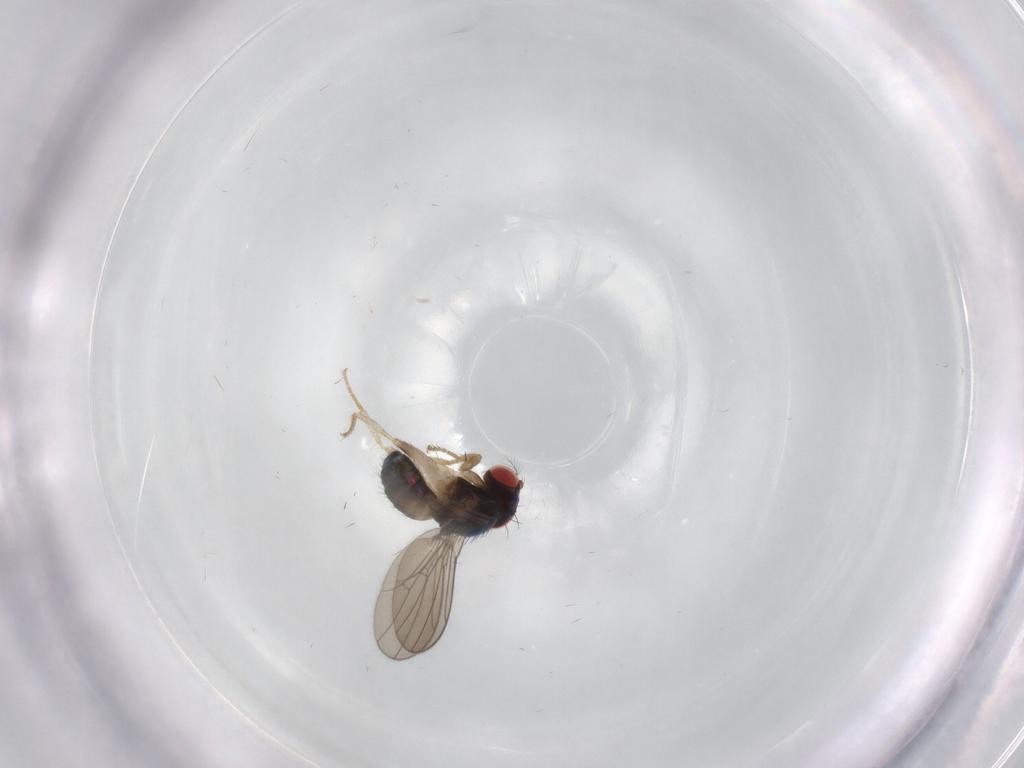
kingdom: Animalia
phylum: Arthropoda
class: Insecta
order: Diptera
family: Ceratopogonidae
